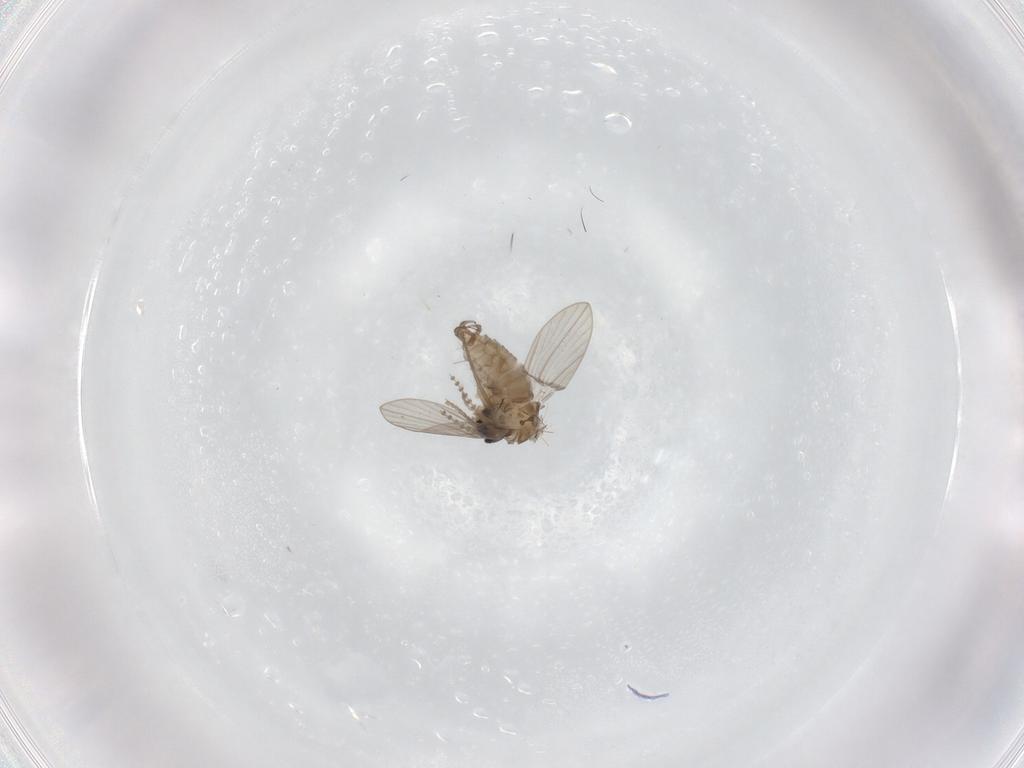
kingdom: Animalia
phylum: Arthropoda
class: Insecta
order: Diptera
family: Psychodidae
